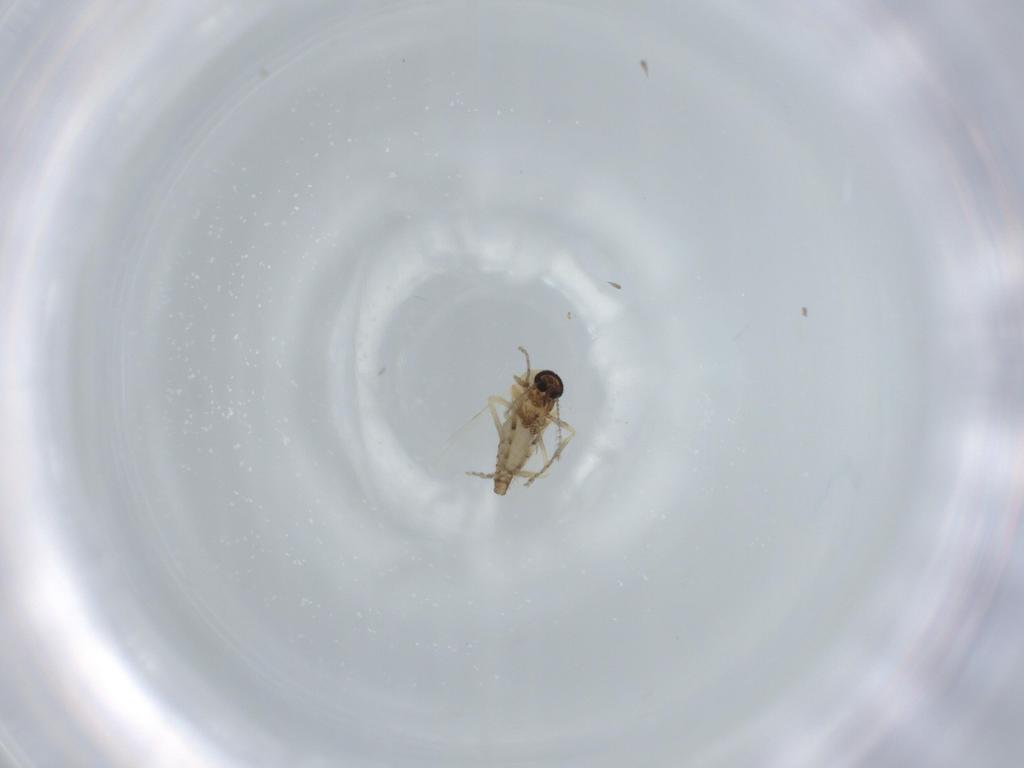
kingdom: Animalia
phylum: Arthropoda
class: Insecta
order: Diptera
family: Ceratopogonidae
